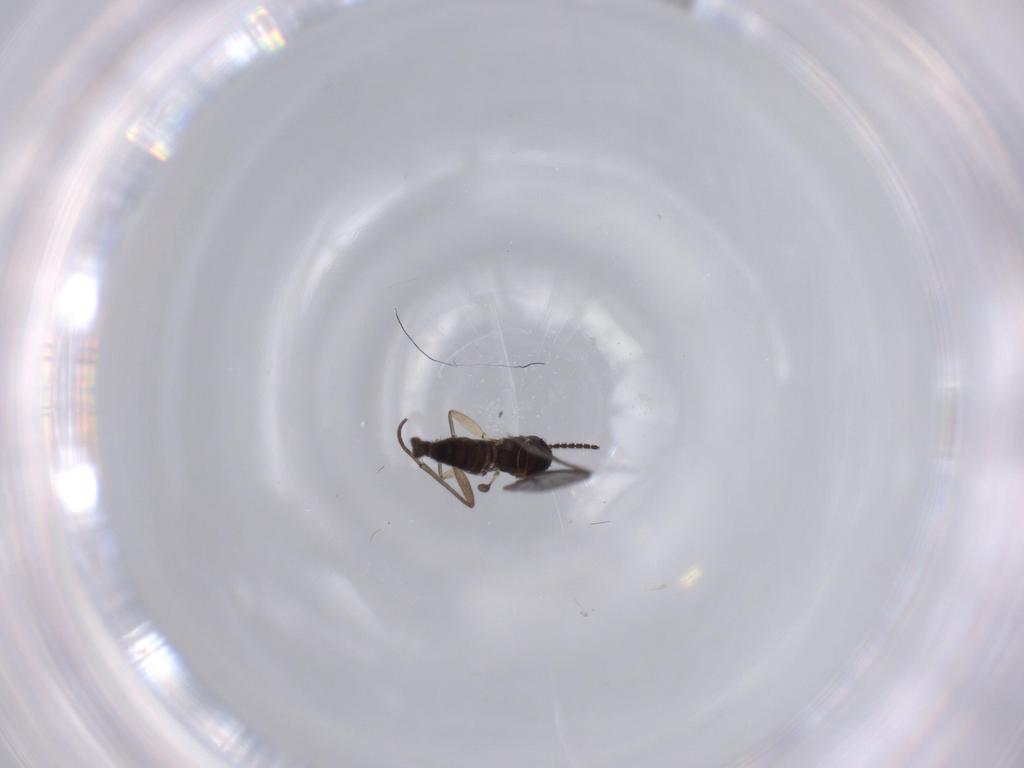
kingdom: Animalia
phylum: Arthropoda
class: Insecta
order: Diptera
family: Sciaridae
